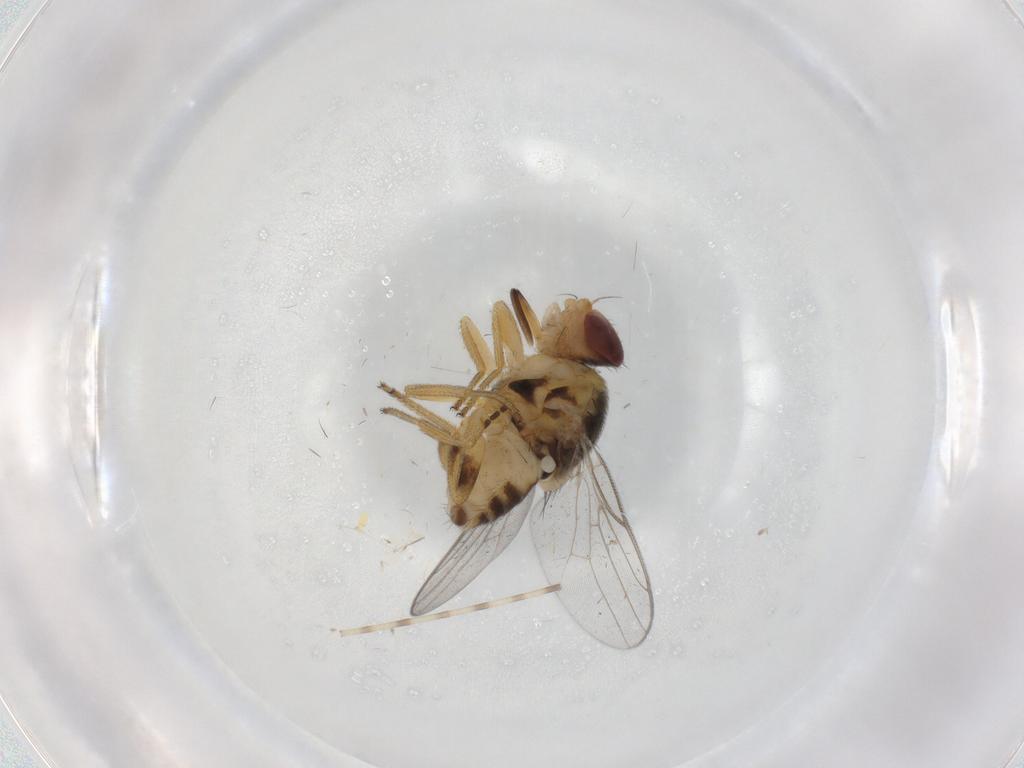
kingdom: Animalia
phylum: Arthropoda
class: Insecta
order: Diptera
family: Chloropidae
